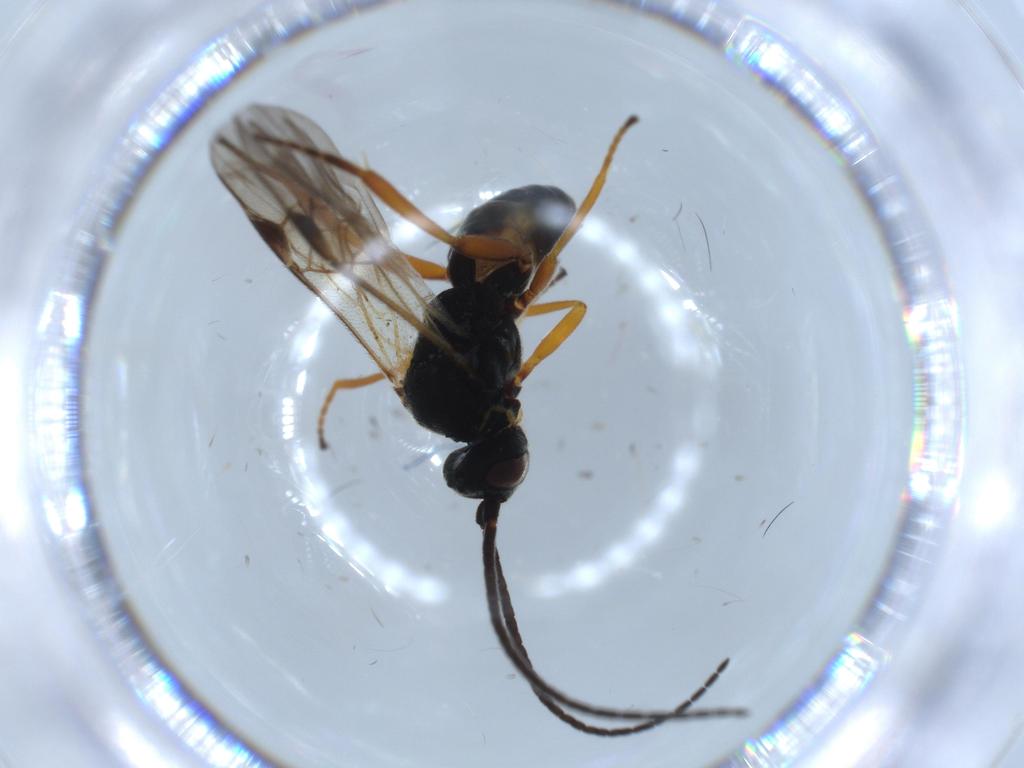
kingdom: Animalia
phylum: Arthropoda
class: Insecta
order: Hymenoptera
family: Braconidae
